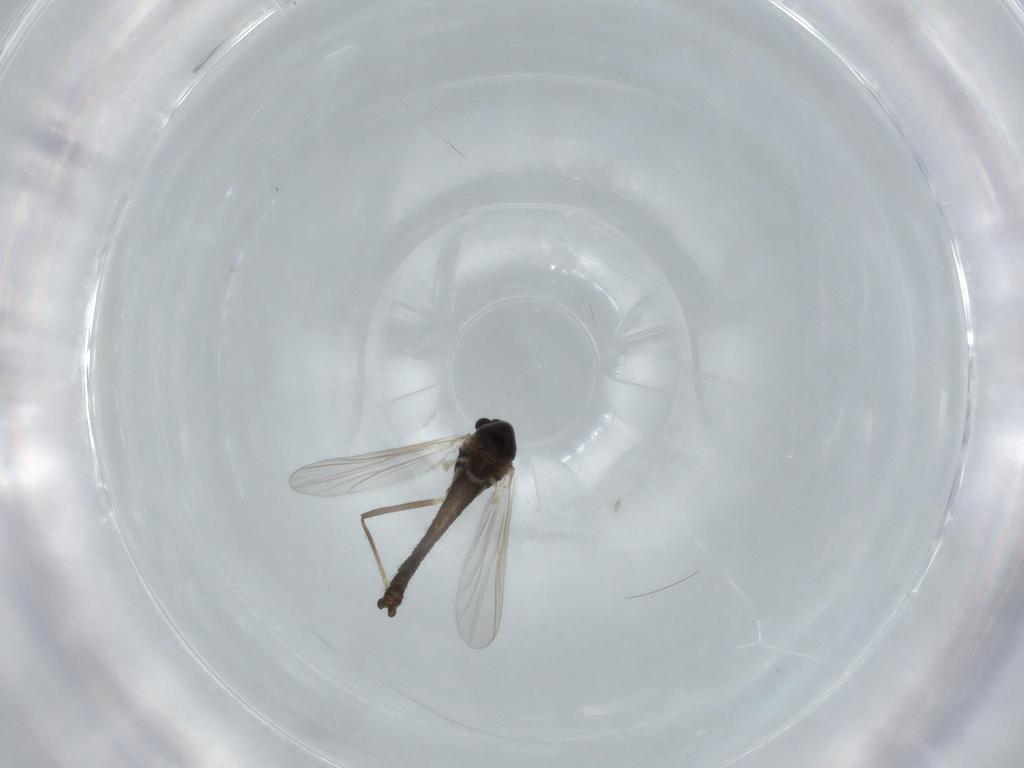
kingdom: Animalia
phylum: Arthropoda
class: Insecta
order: Diptera
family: Chironomidae
